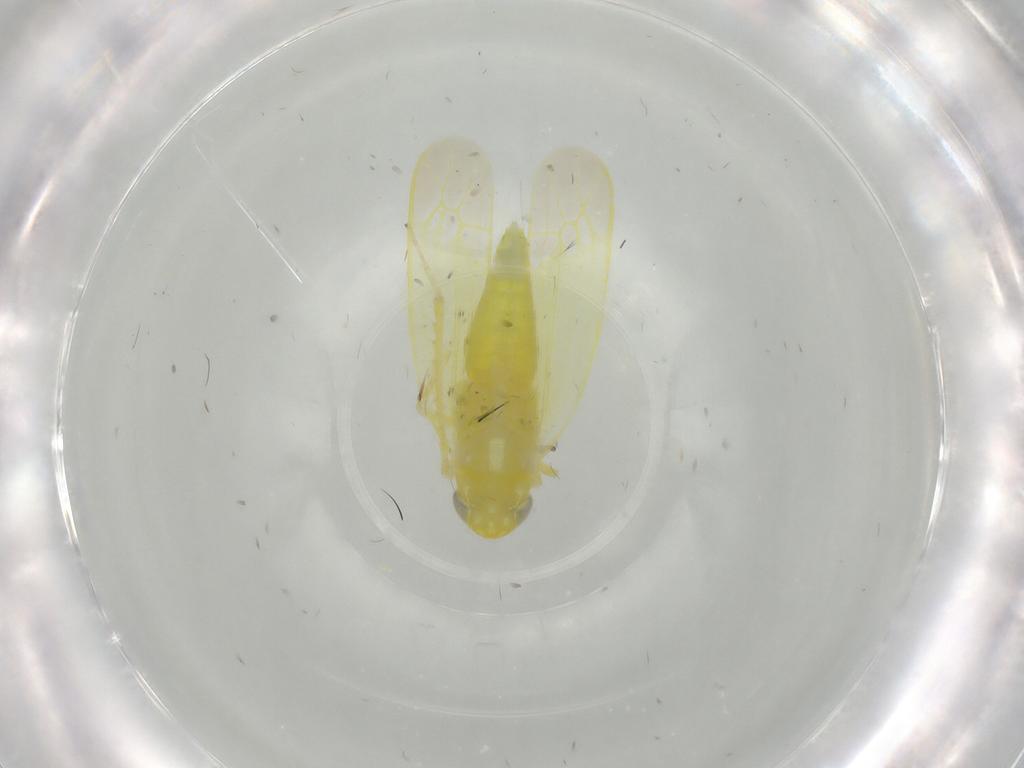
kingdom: Animalia
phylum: Arthropoda
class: Insecta
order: Hemiptera
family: Cicadellidae
